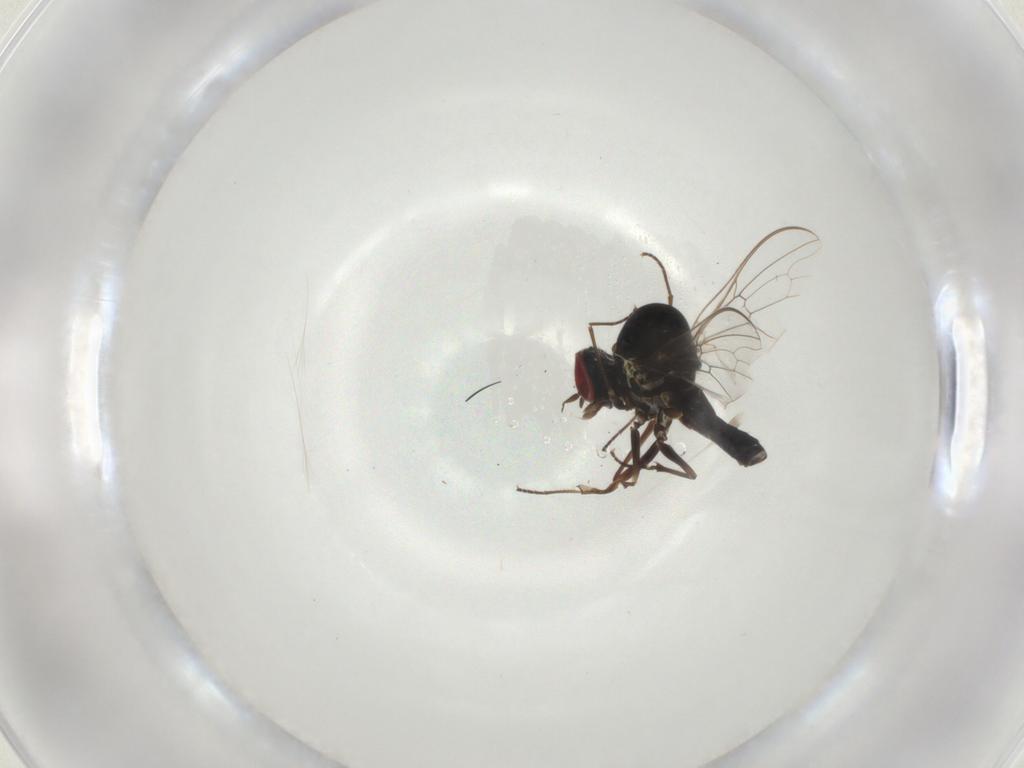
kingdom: Animalia
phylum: Arthropoda
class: Insecta
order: Diptera
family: Bombyliidae
